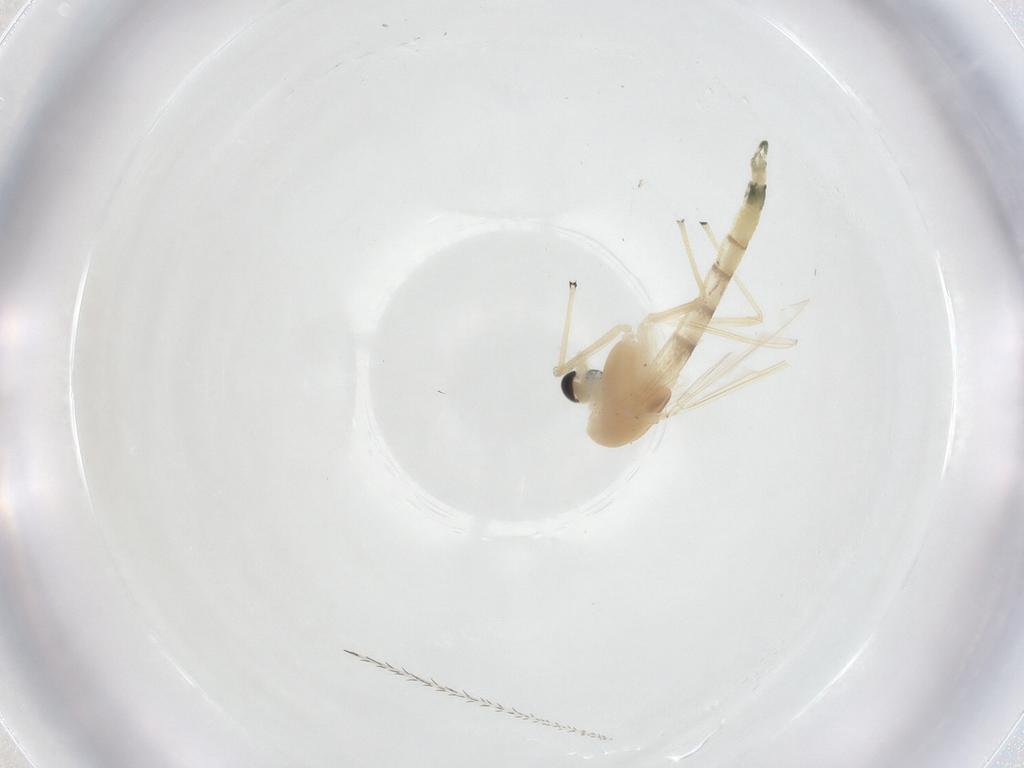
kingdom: Animalia
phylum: Arthropoda
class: Insecta
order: Diptera
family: Chironomidae
